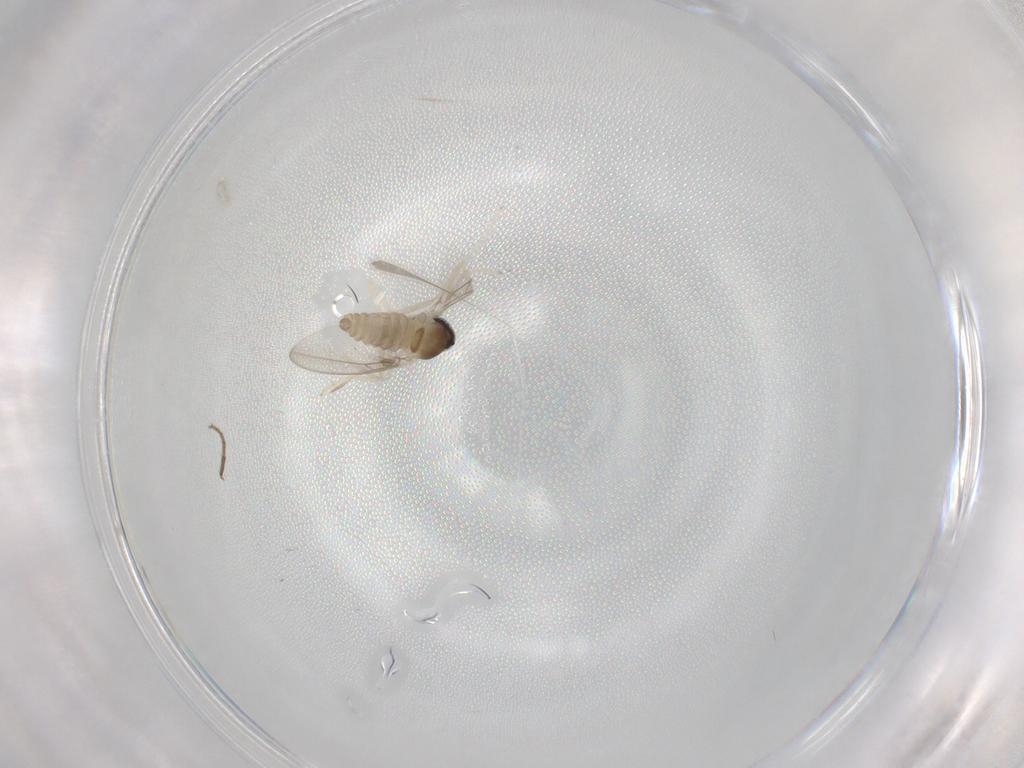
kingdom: Animalia
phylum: Arthropoda
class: Insecta
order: Diptera
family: Cecidomyiidae
